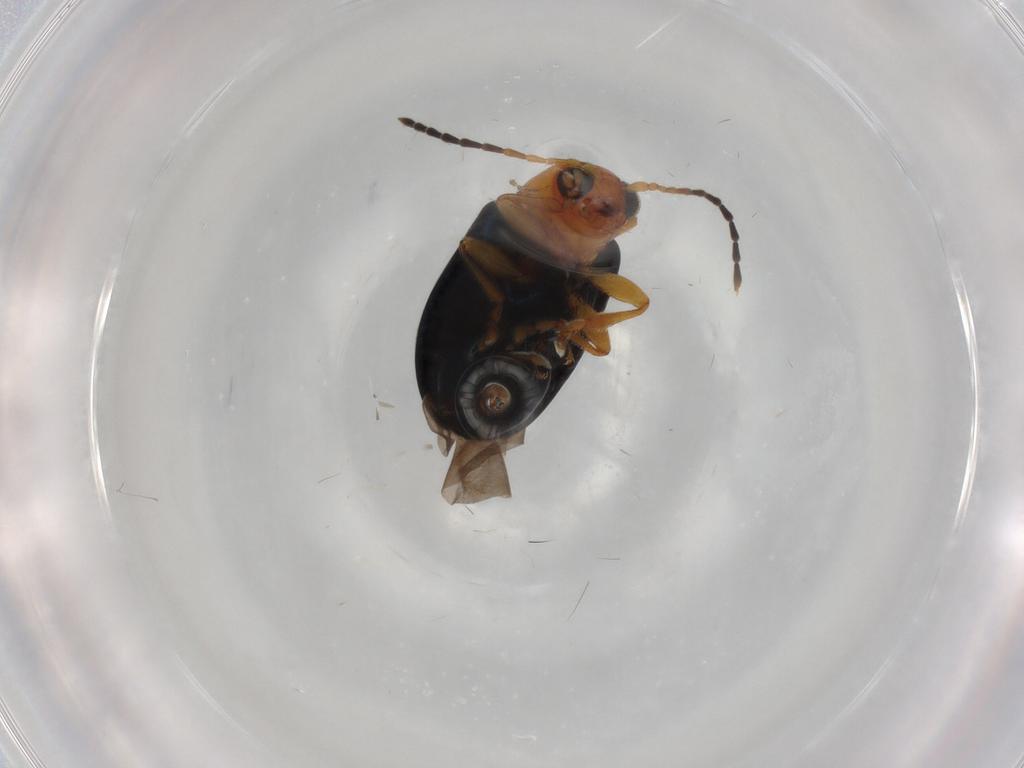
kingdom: Animalia
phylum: Arthropoda
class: Insecta
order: Coleoptera
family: Chrysomelidae
